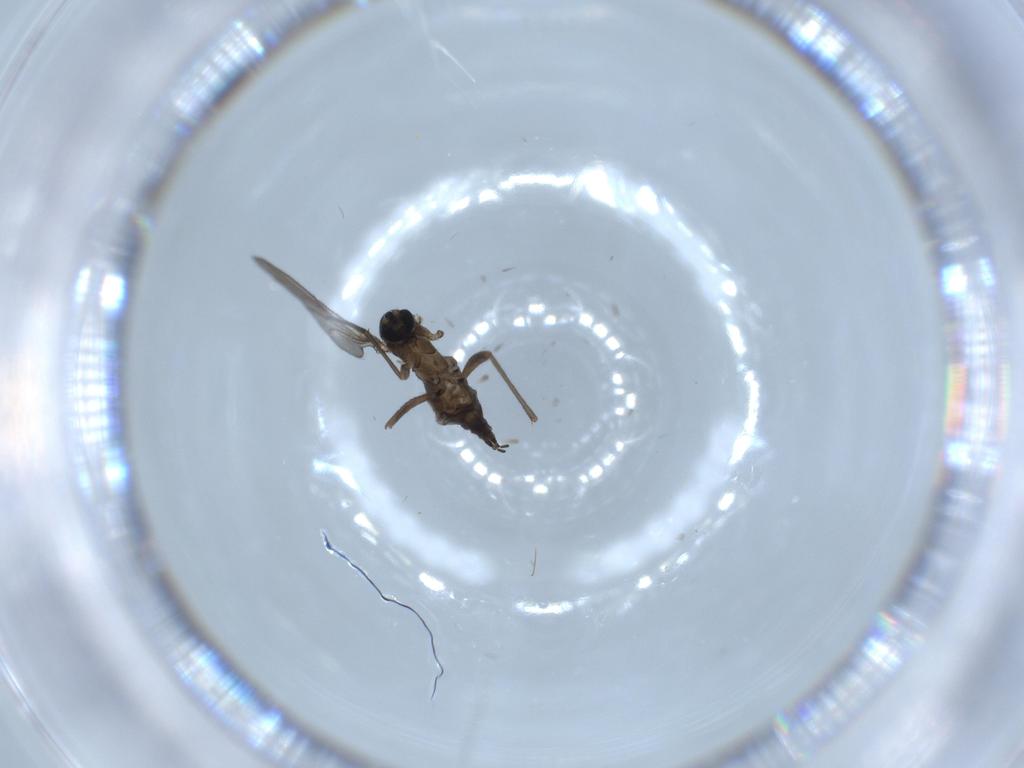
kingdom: Animalia
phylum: Arthropoda
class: Insecta
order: Diptera
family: Sciaridae
